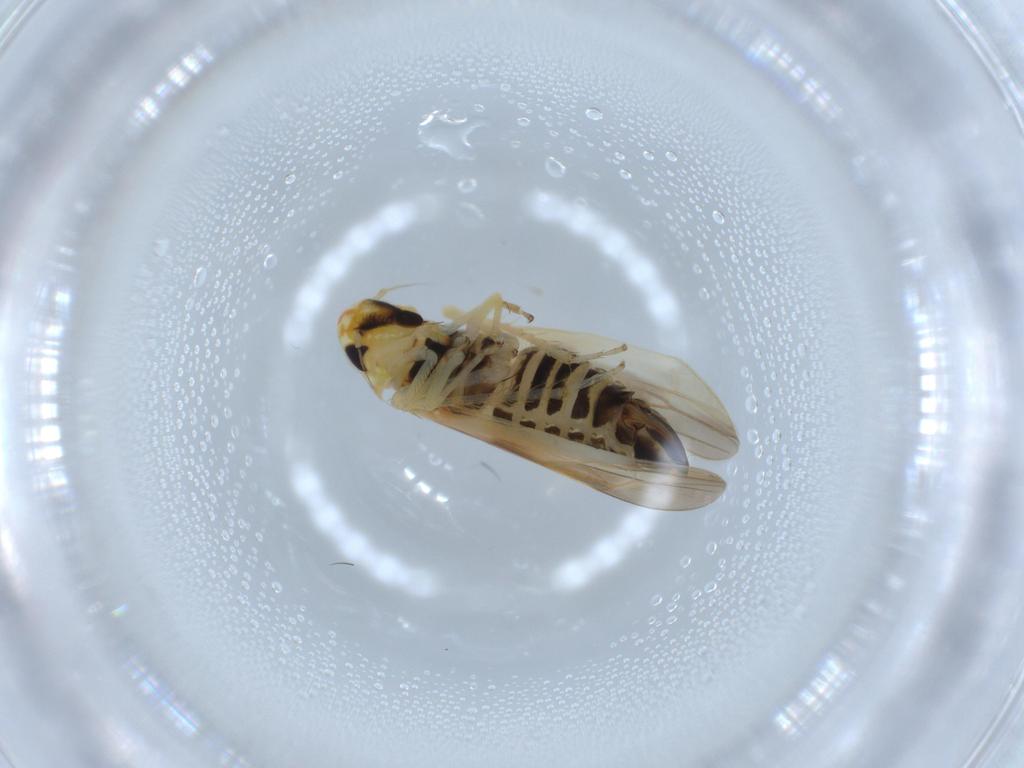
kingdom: Animalia
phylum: Arthropoda
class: Insecta
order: Hemiptera
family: Cicadellidae
